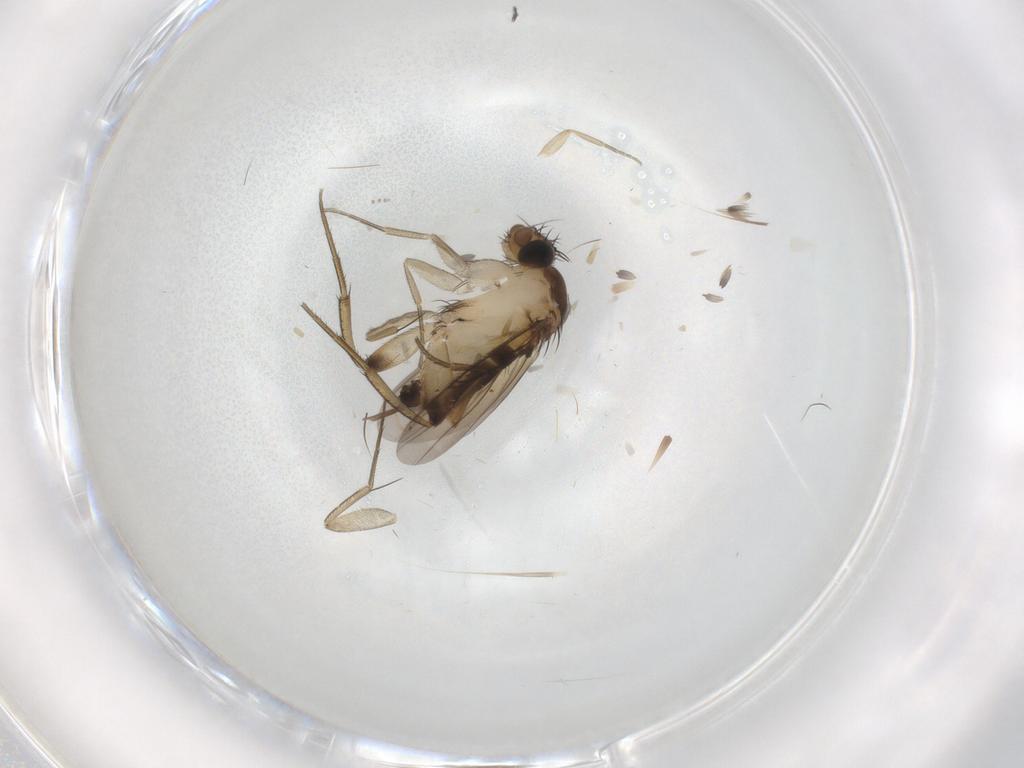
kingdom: Animalia
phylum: Arthropoda
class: Insecta
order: Diptera
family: Phoridae
